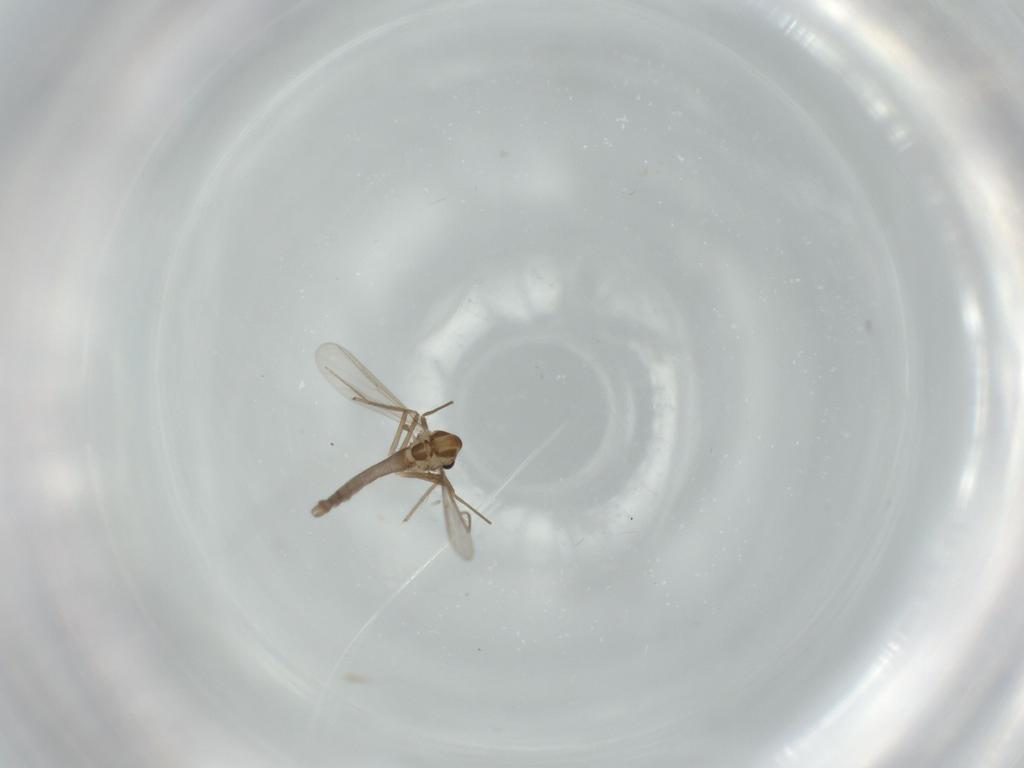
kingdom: Animalia
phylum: Arthropoda
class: Insecta
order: Diptera
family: Chironomidae
